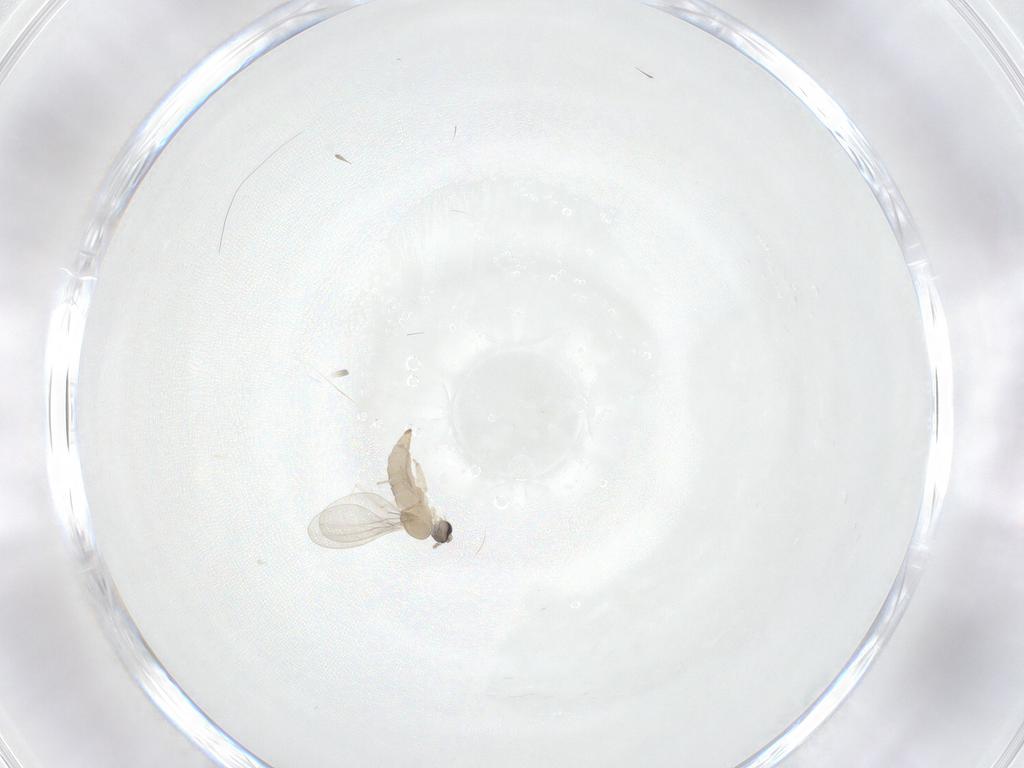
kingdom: Animalia
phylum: Arthropoda
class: Insecta
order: Diptera
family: Cecidomyiidae
